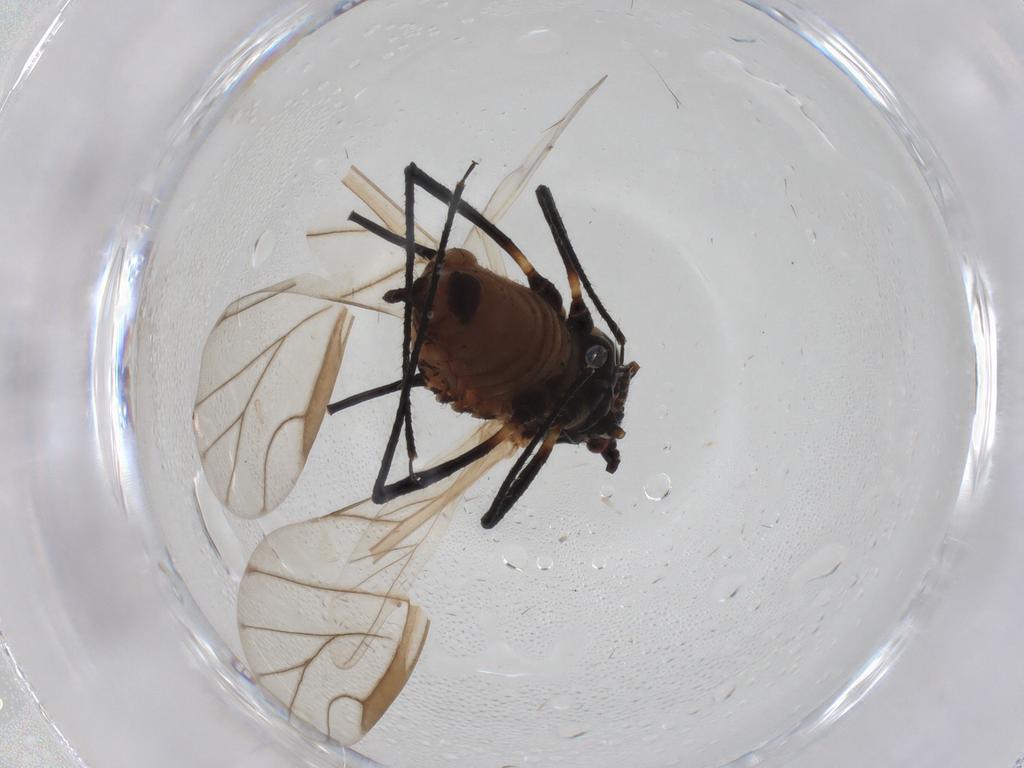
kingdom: Animalia
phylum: Arthropoda
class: Insecta
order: Hemiptera
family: Aphididae
